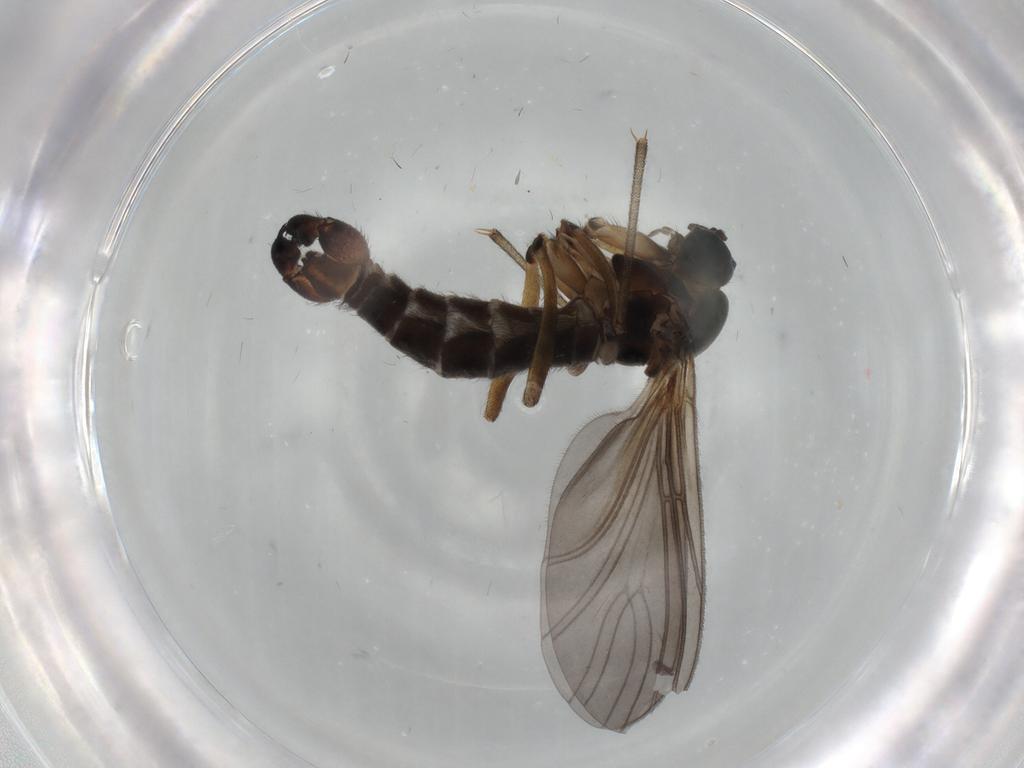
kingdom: Animalia
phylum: Arthropoda
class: Insecta
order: Diptera
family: Sciaridae
